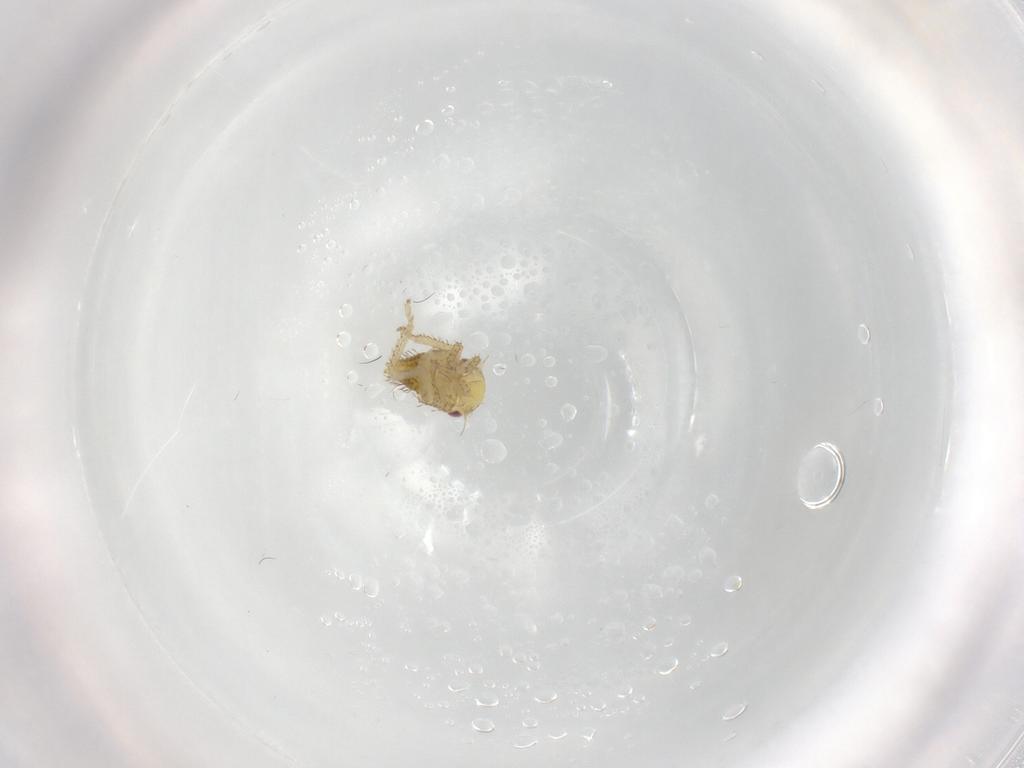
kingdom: Animalia
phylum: Arthropoda
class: Insecta
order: Hemiptera
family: Cicadellidae
